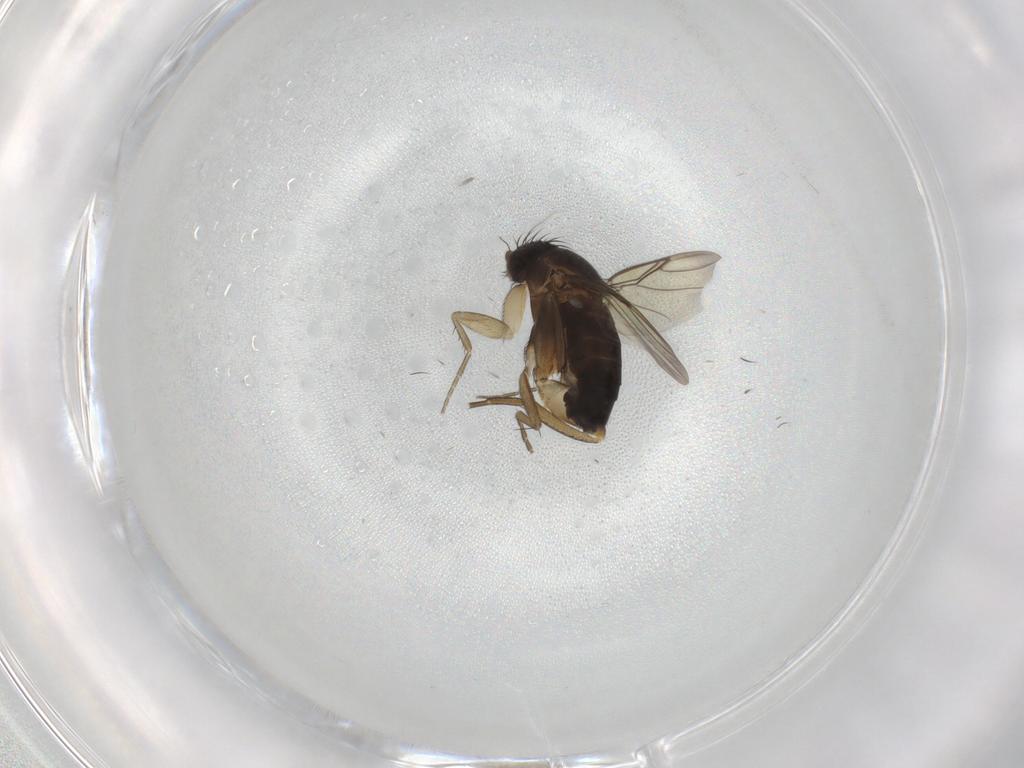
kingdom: Animalia
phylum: Arthropoda
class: Insecta
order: Diptera
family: Phoridae
